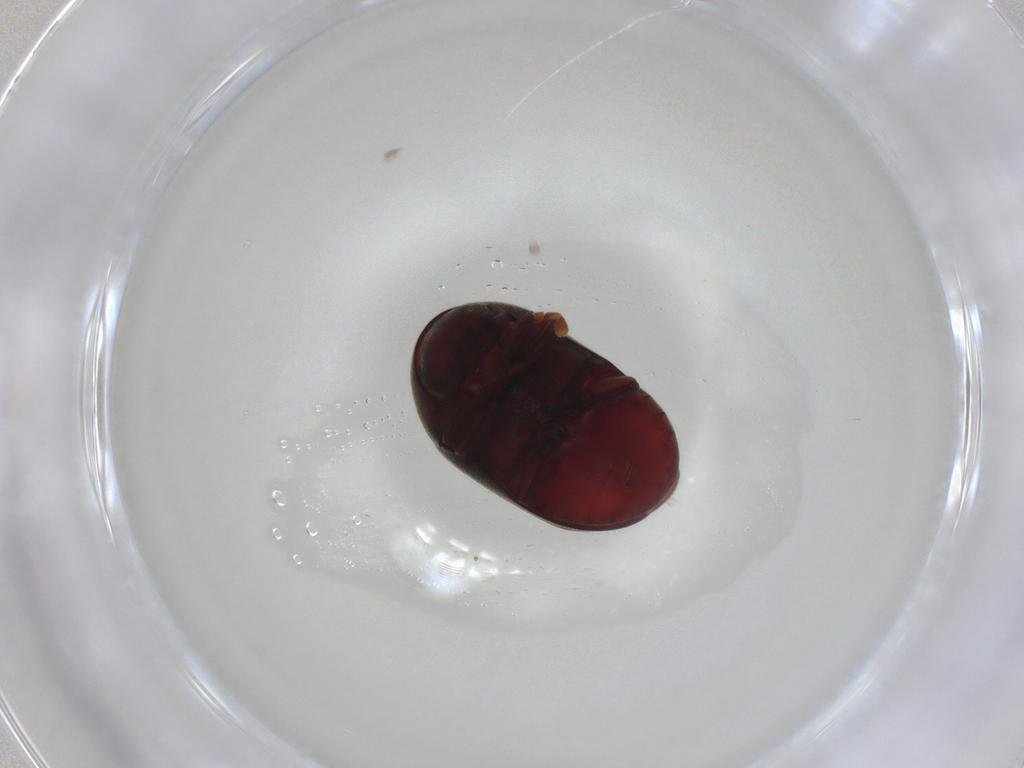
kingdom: Animalia
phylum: Arthropoda
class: Insecta
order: Coleoptera
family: Ptinidae
